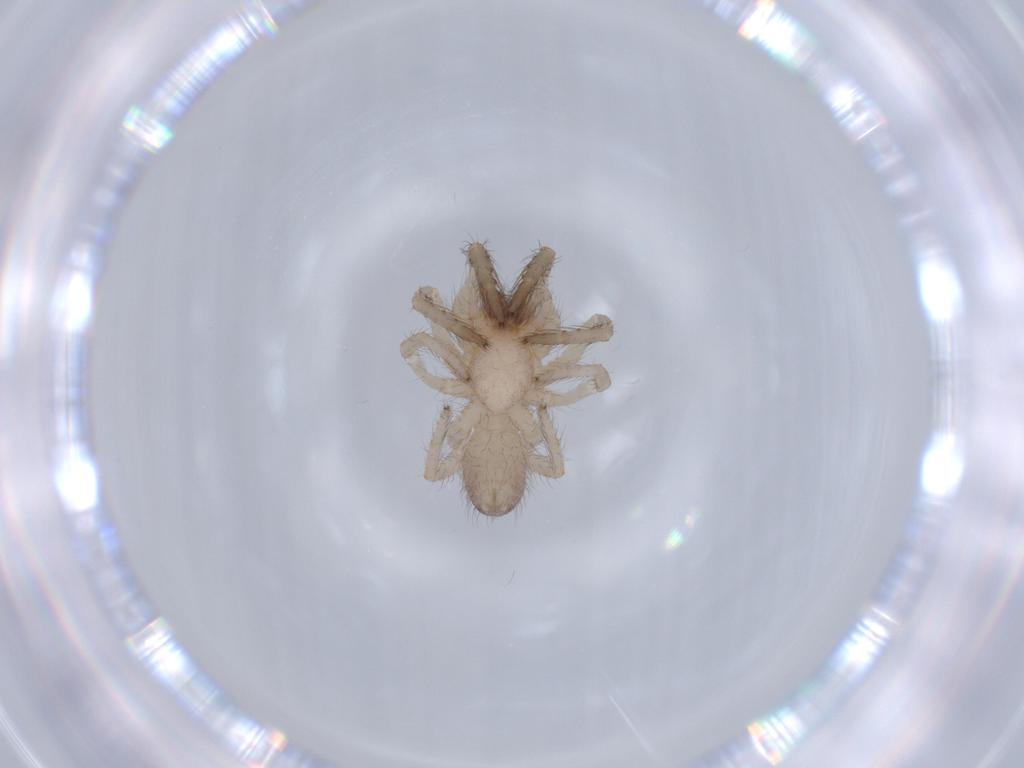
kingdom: Animalia
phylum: Arthropoda
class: Arachnida
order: Araneae
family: Segestriidae
